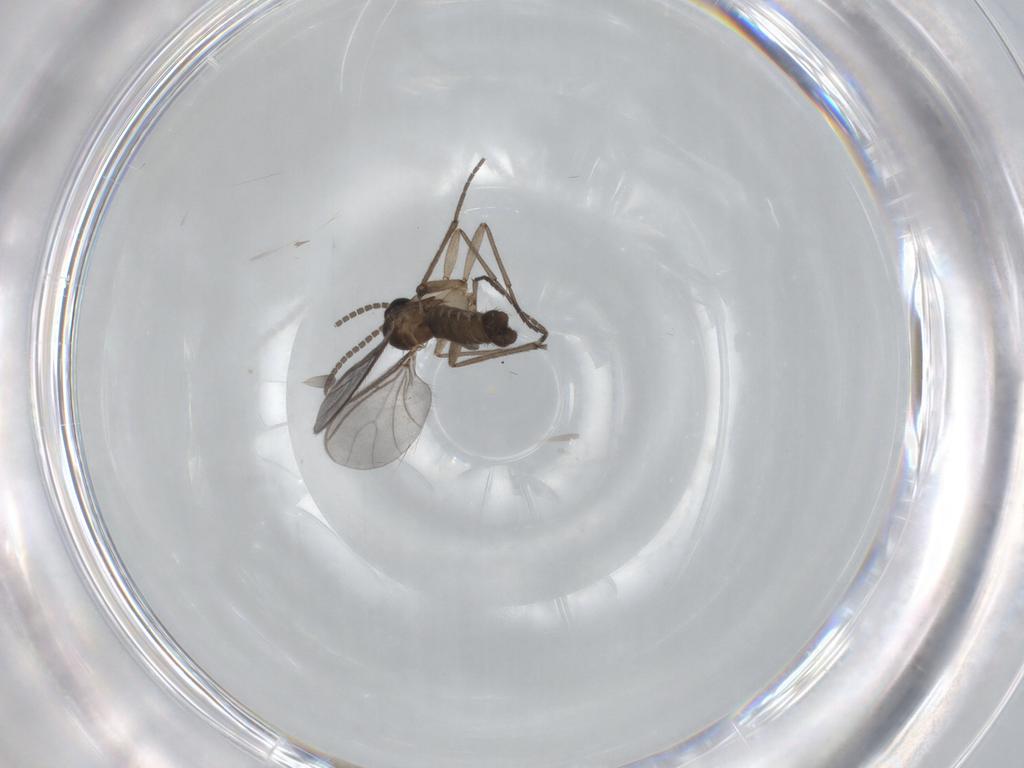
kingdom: Animalia
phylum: Arthropoda
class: Insecta
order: Diptera
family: Sciaridae
